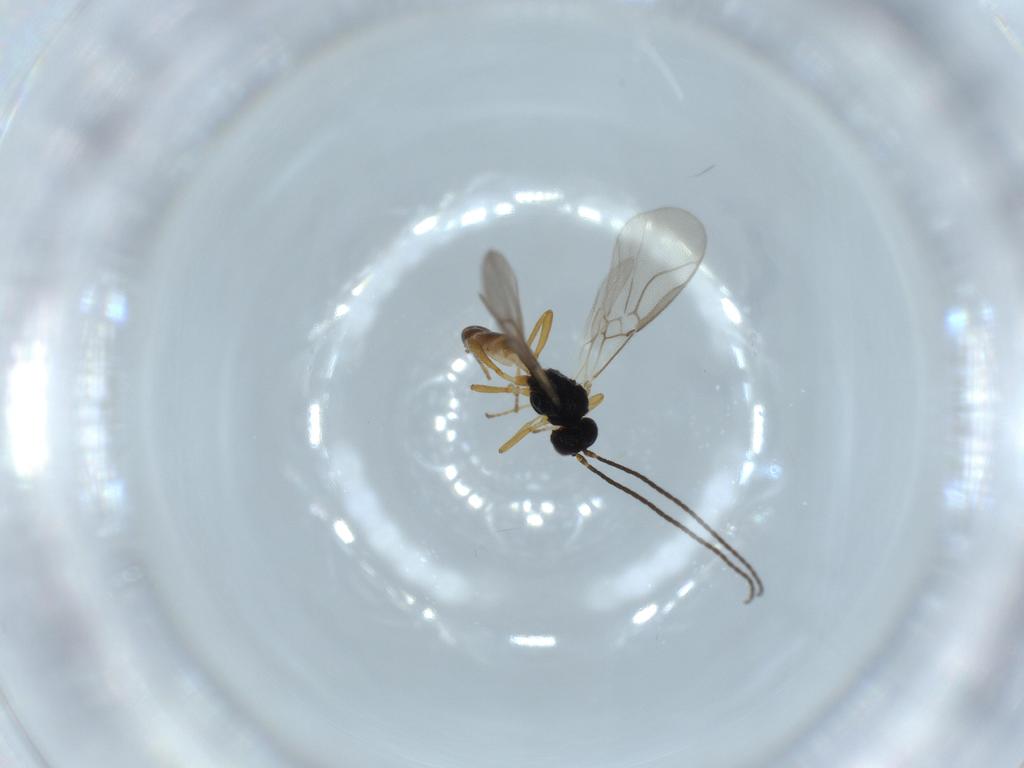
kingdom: Animalia
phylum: Arthropoda
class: Insecta
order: Hymenoptera
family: Braconidae
